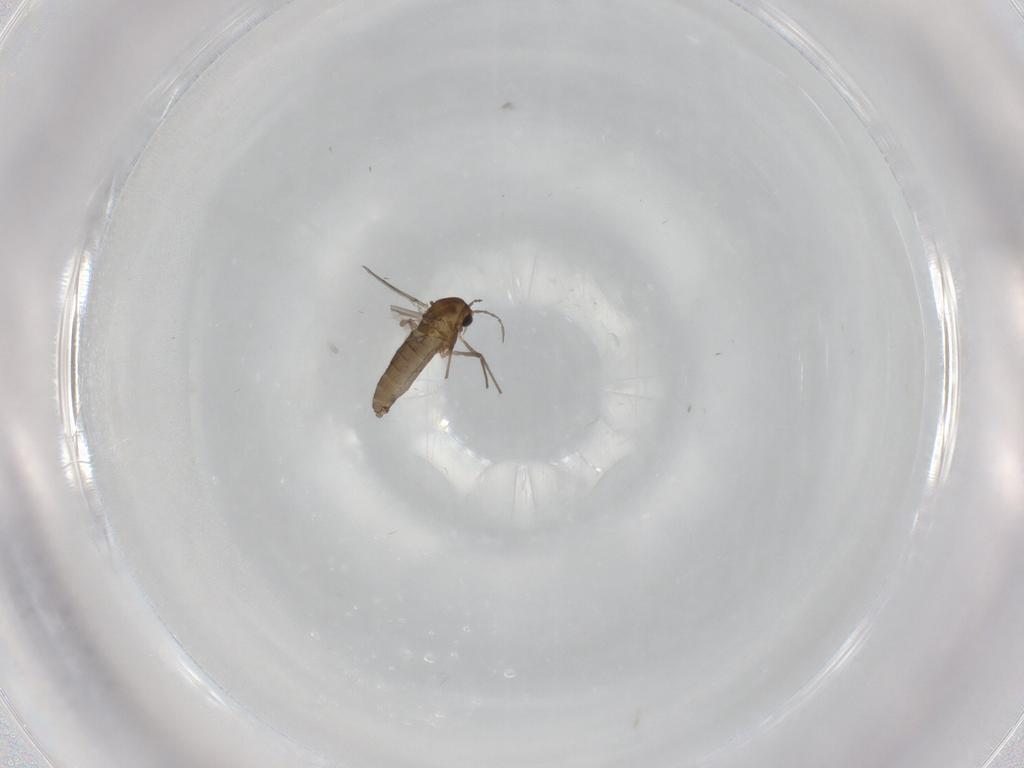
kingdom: Animalia
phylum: Arthropoda
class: Insecta
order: Diptera
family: Chironomidae
